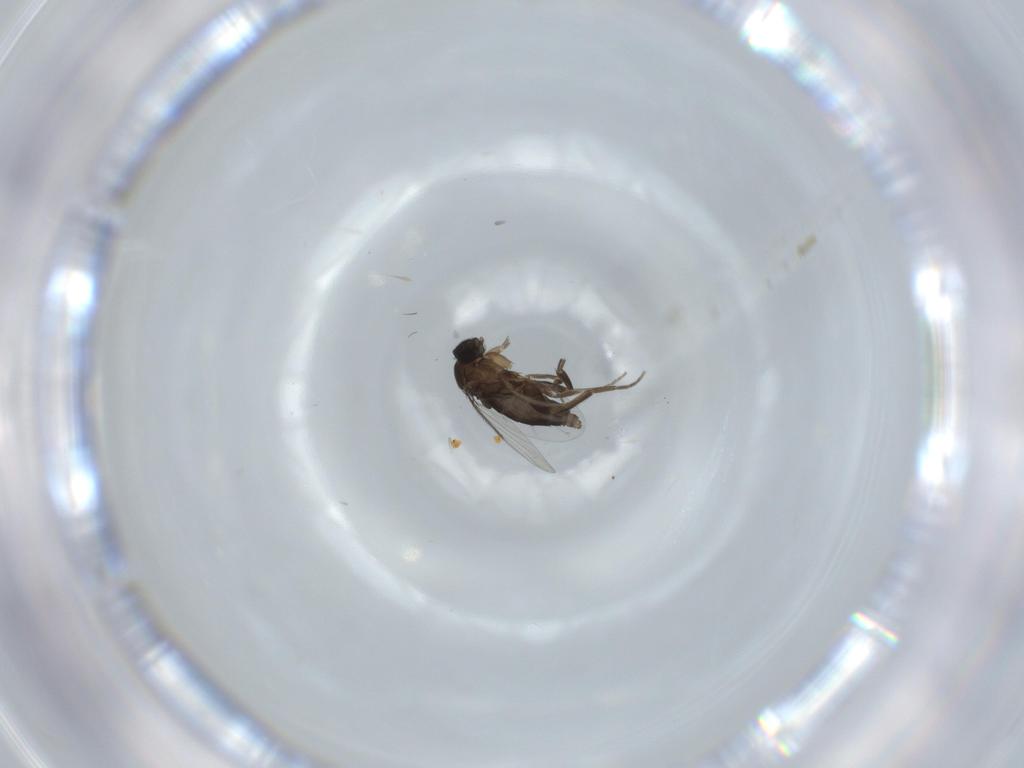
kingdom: Animalia
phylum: Arthropoda
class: Insecta
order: Diptera
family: Phoridae
